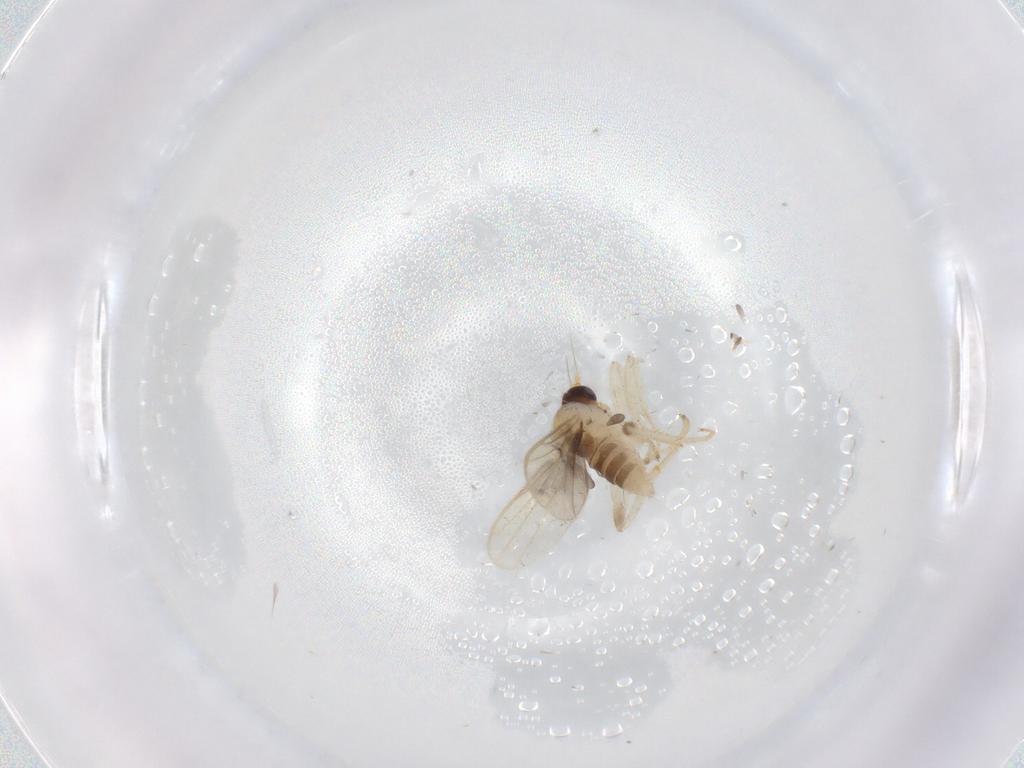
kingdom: Animalia
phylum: Arthropoda
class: Insecta
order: Diptera
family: Hybotidae
